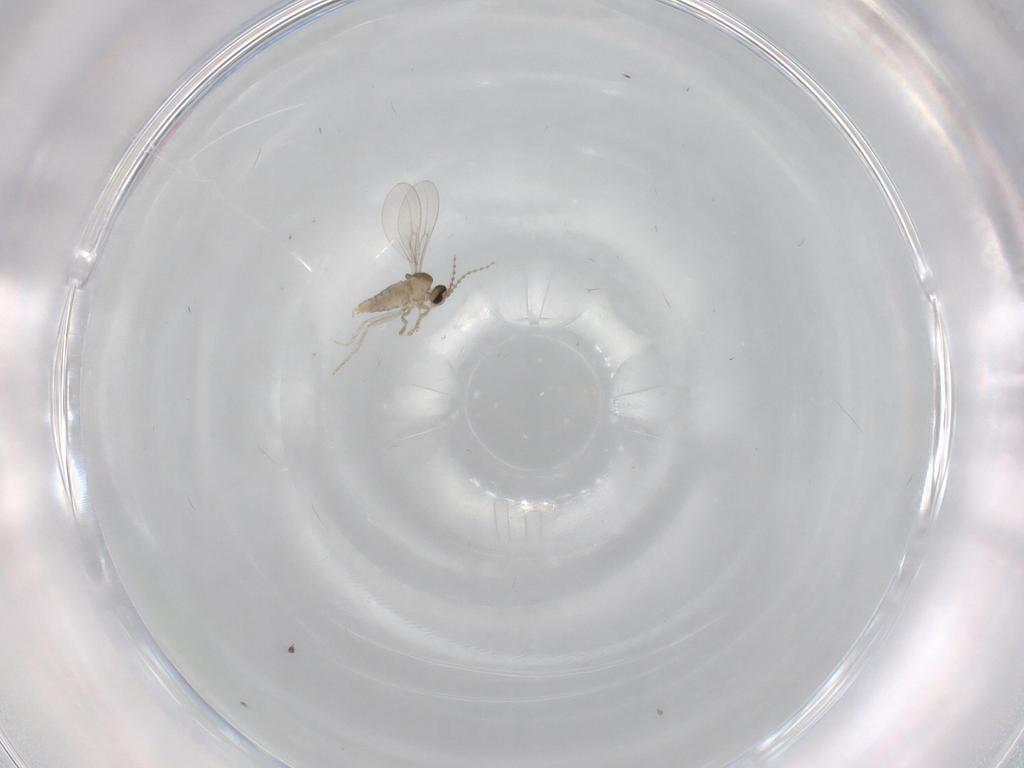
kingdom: Animalia
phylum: Arthropoda
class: Insecta
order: Diptera
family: Cecidomyiidae
